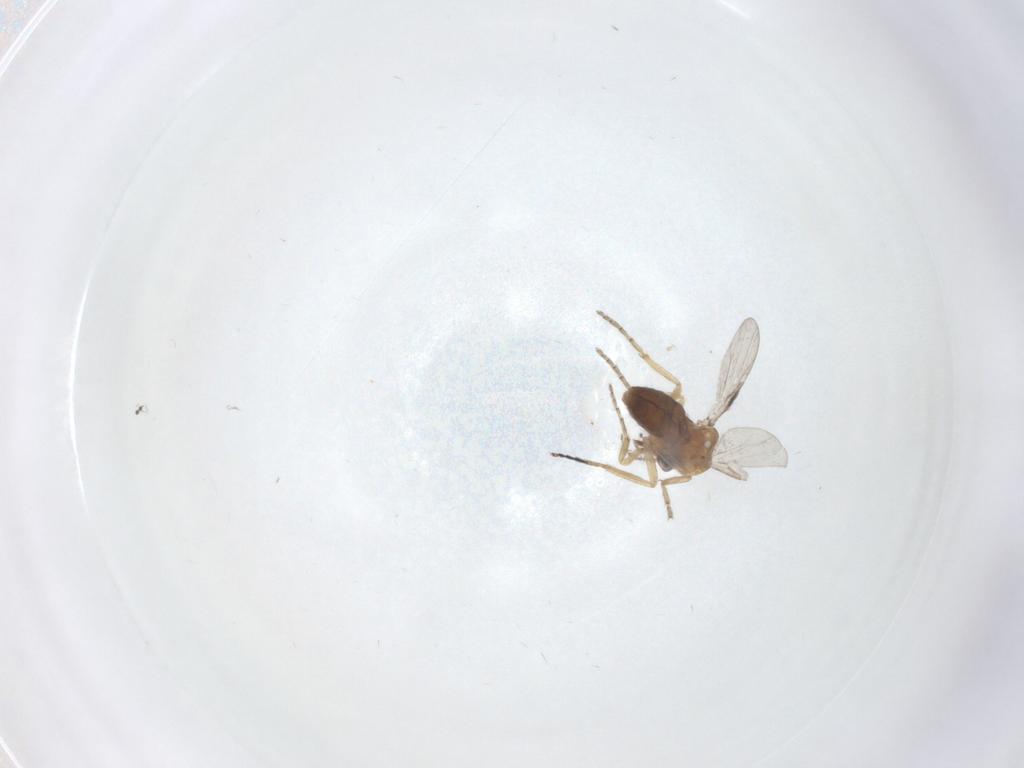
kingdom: Animalia
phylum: Arthropoda
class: Insecta
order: Diptera
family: Ceratopogonidae
